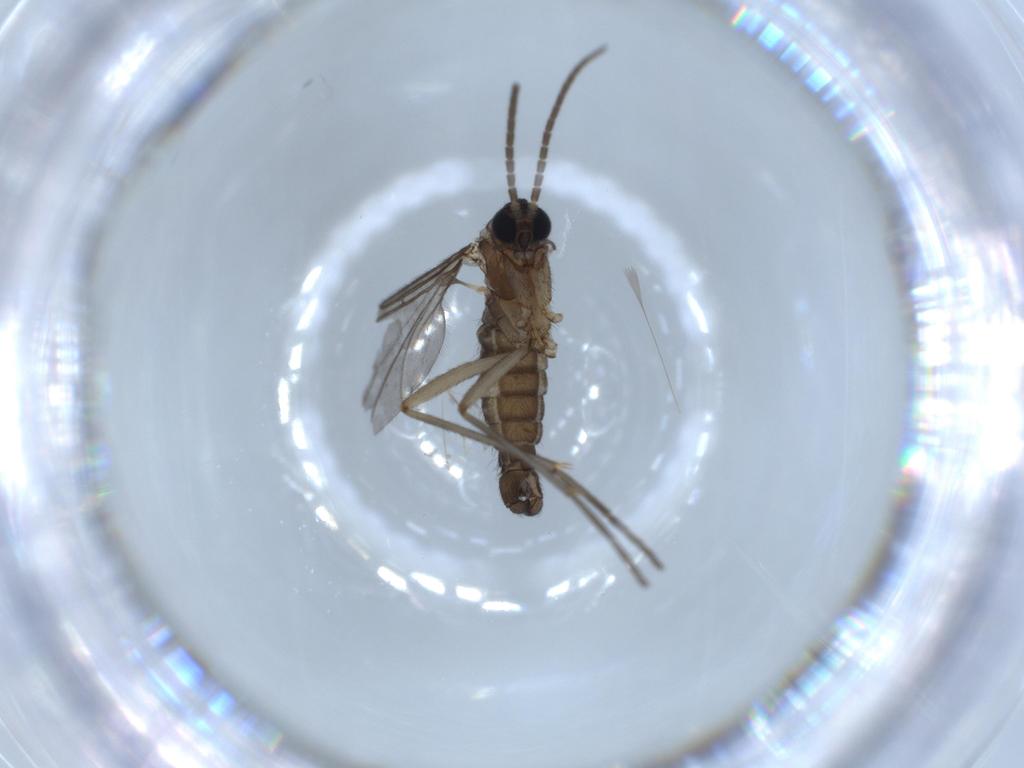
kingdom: Animalia
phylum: Arthropoda
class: Insecta
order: Diptera
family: Sciaridae
